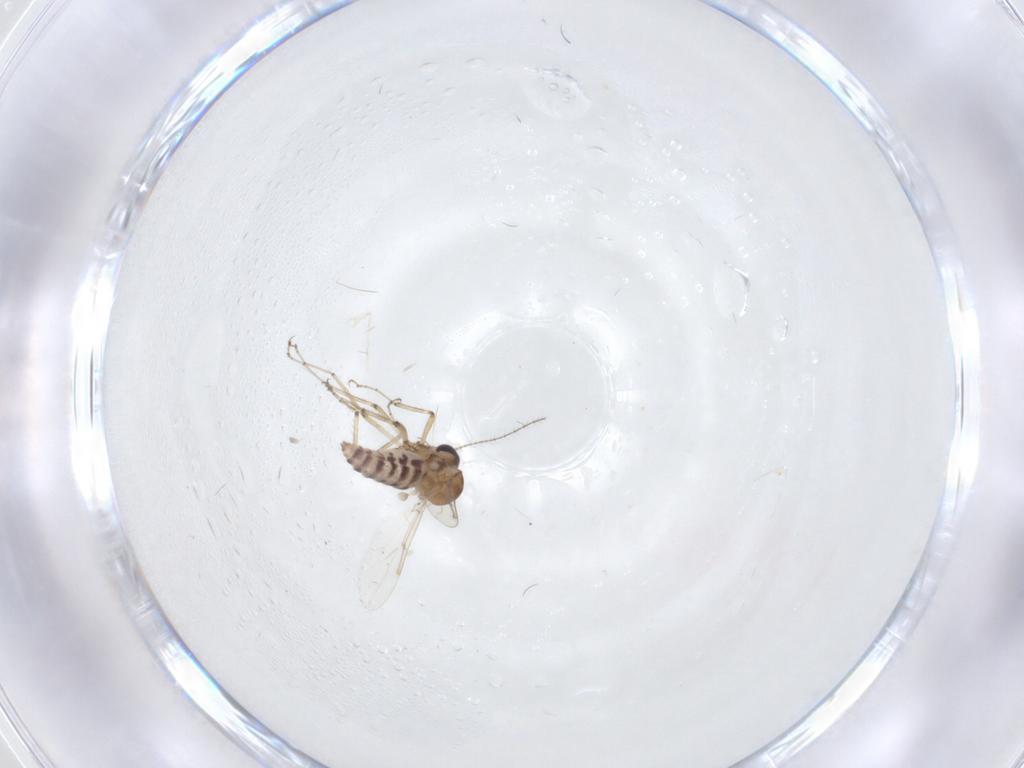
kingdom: Animalia
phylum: Arthropoda
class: Insecta
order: Diptera
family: Ceratopogonidae
